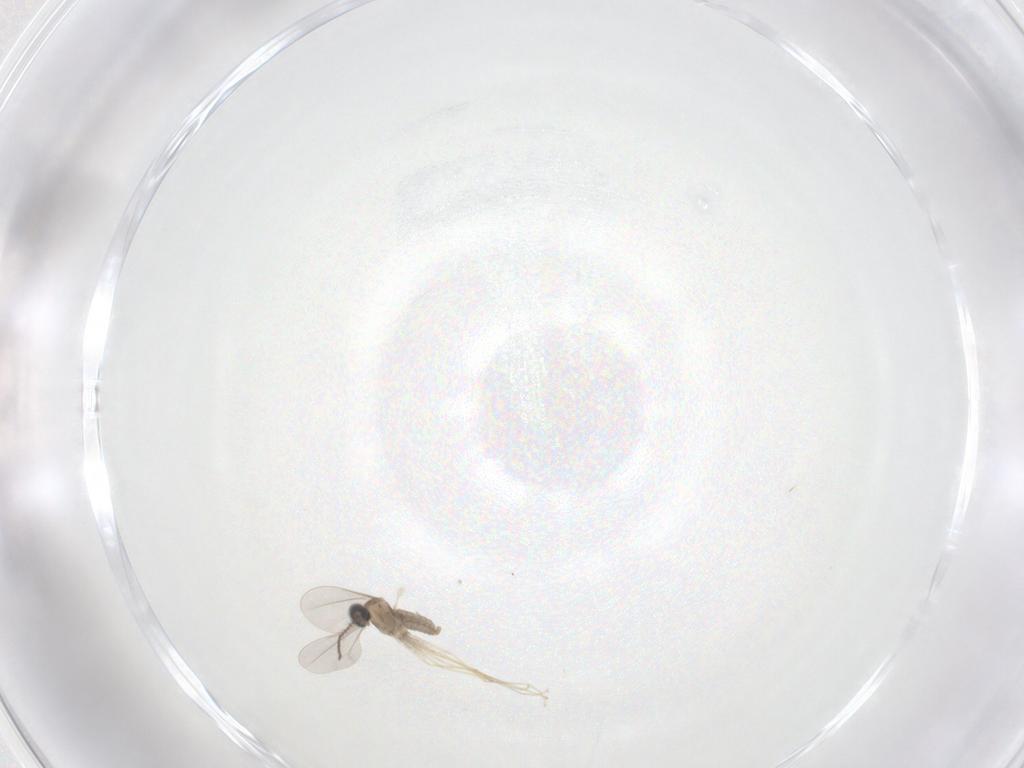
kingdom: Animalia
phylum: Arthropoda
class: Insecta
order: Diptera
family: Cecidomyiidae
